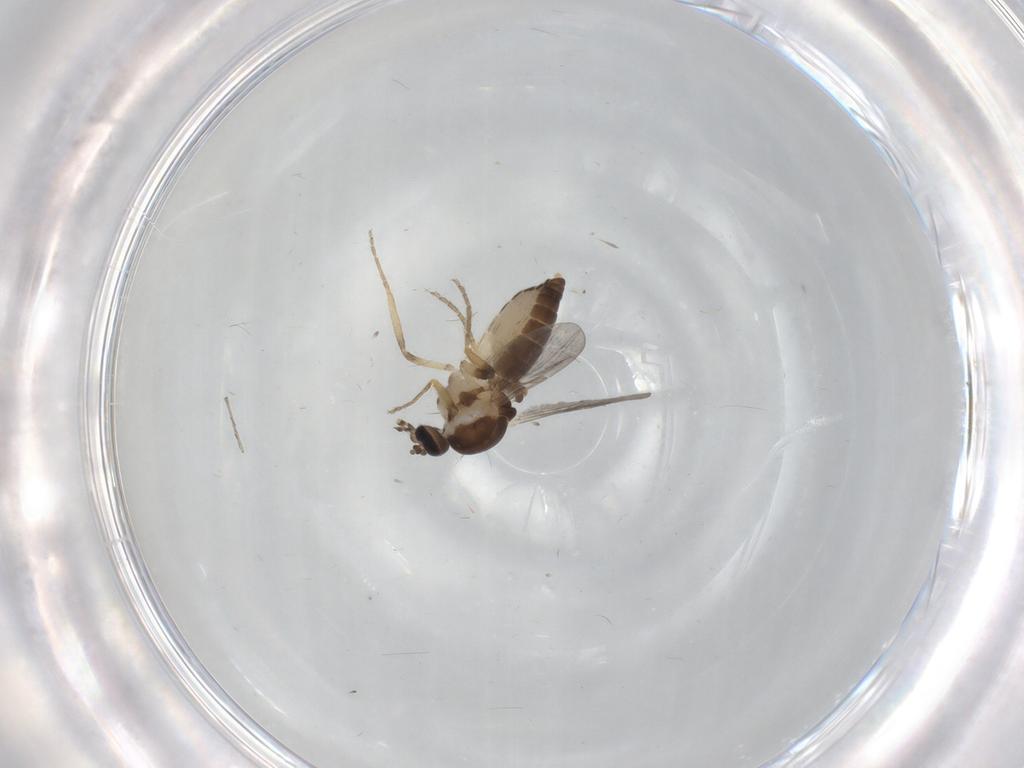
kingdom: Animalia
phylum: Arthropoda
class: Insecta
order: Diptera
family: Ceratopogonidae
